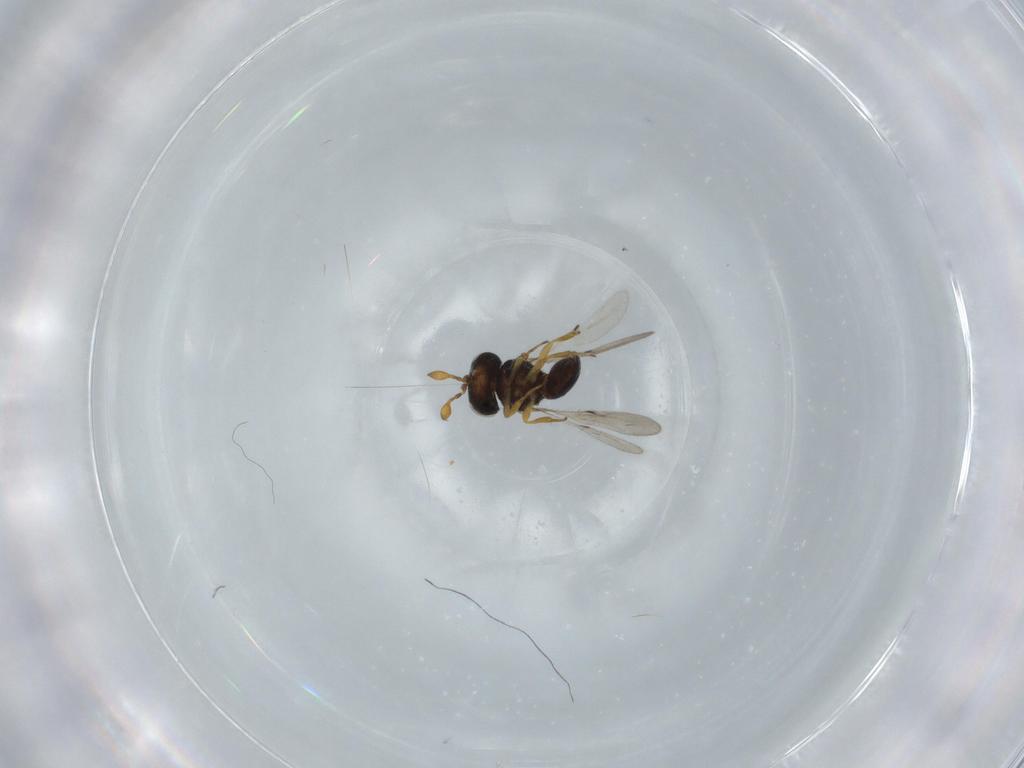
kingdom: Animalia
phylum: Arthropoda
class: Insecta
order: Hymenoptera
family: Scelionidae
